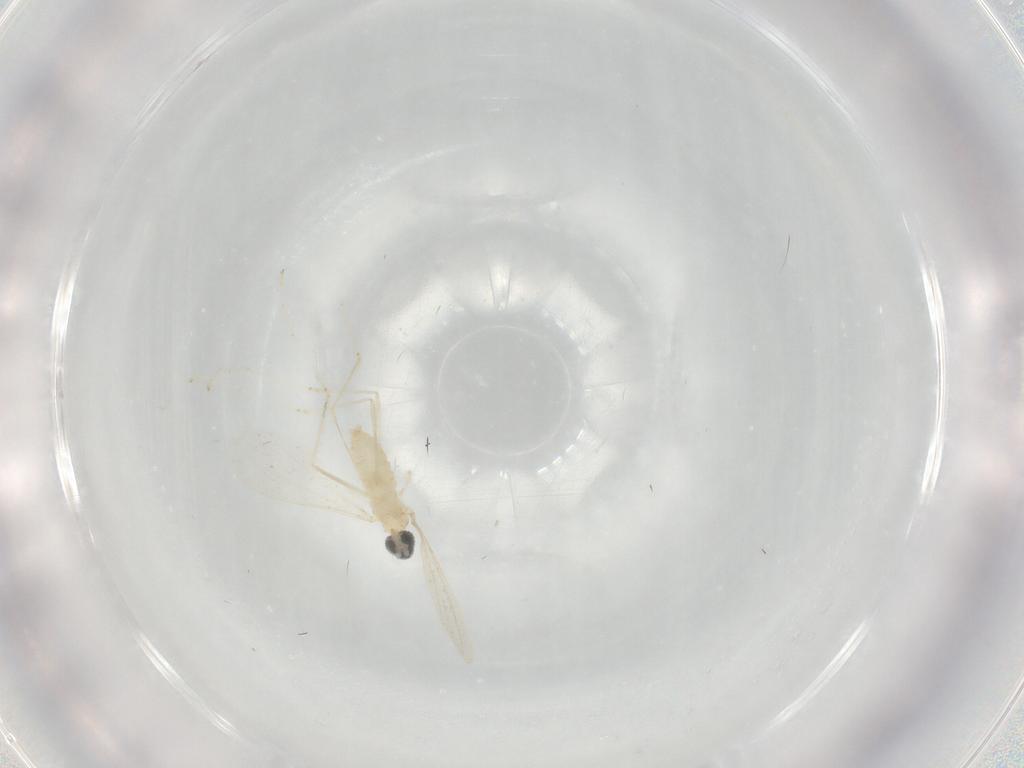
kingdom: Animalia
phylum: Arthropoda
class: Insecta
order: Diptera
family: Cecidomyiidae
